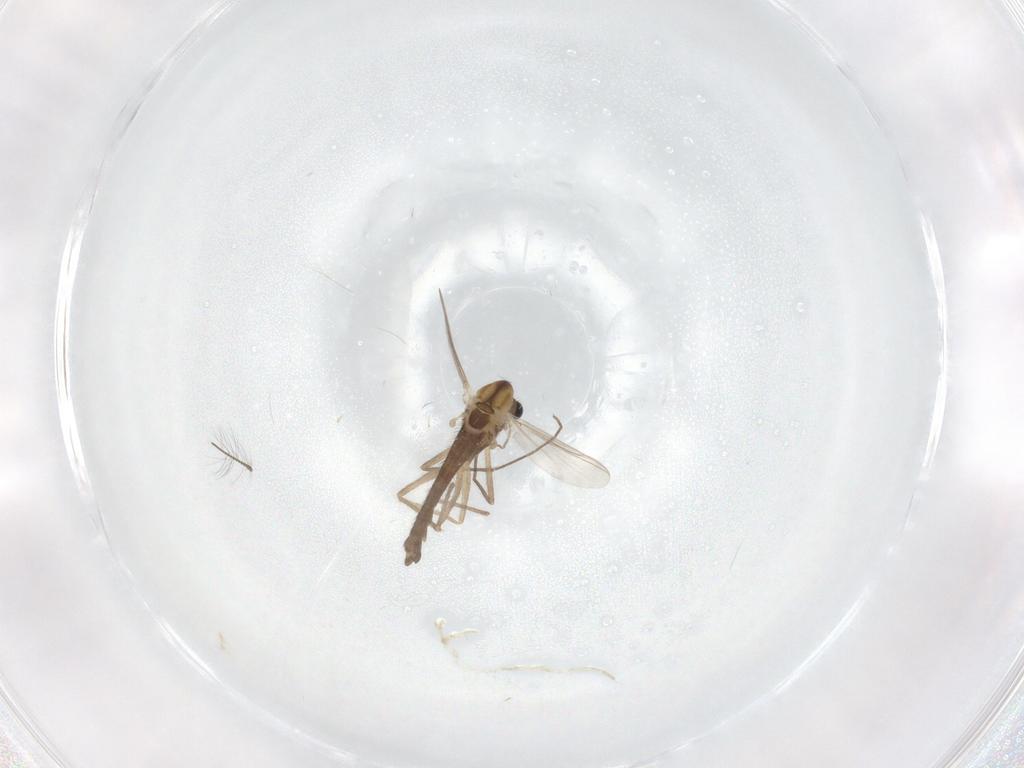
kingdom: Animalia
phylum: Arthropoda
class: Insecta
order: Diptera
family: Chironomidae
